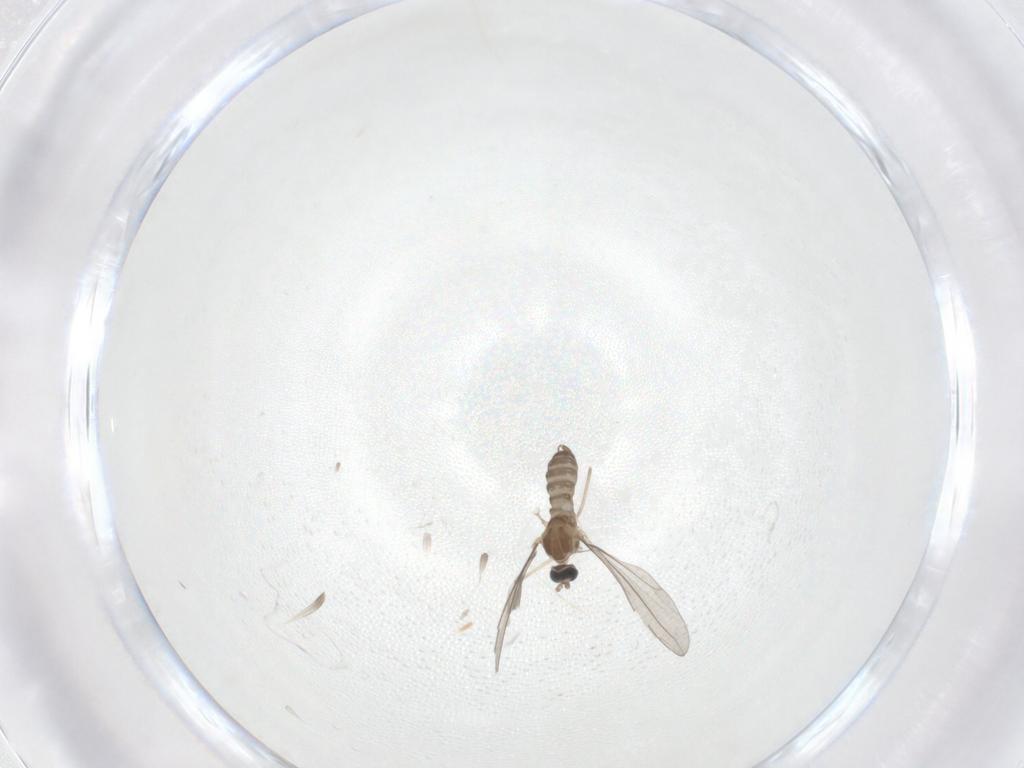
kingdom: Animalia
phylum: Arthropoda
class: Insecta
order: Diptera
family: Cecidomyiidae
